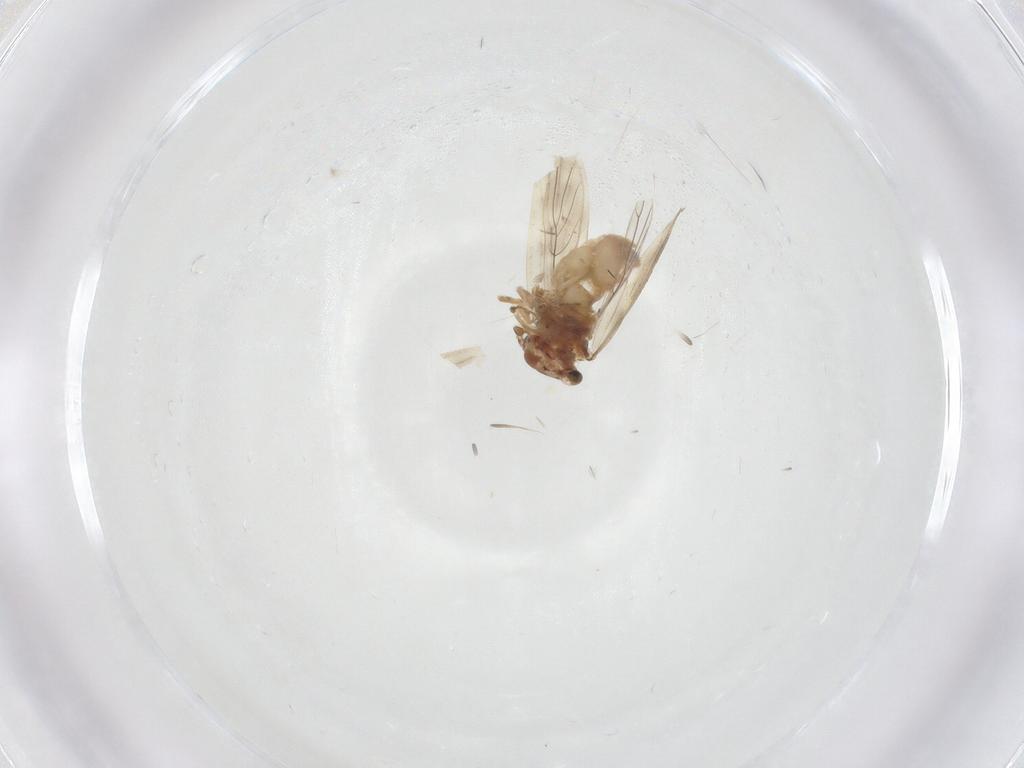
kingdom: Animalia
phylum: Arthropoda
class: Insecta
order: Psocodea
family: Lepidopsocidae
